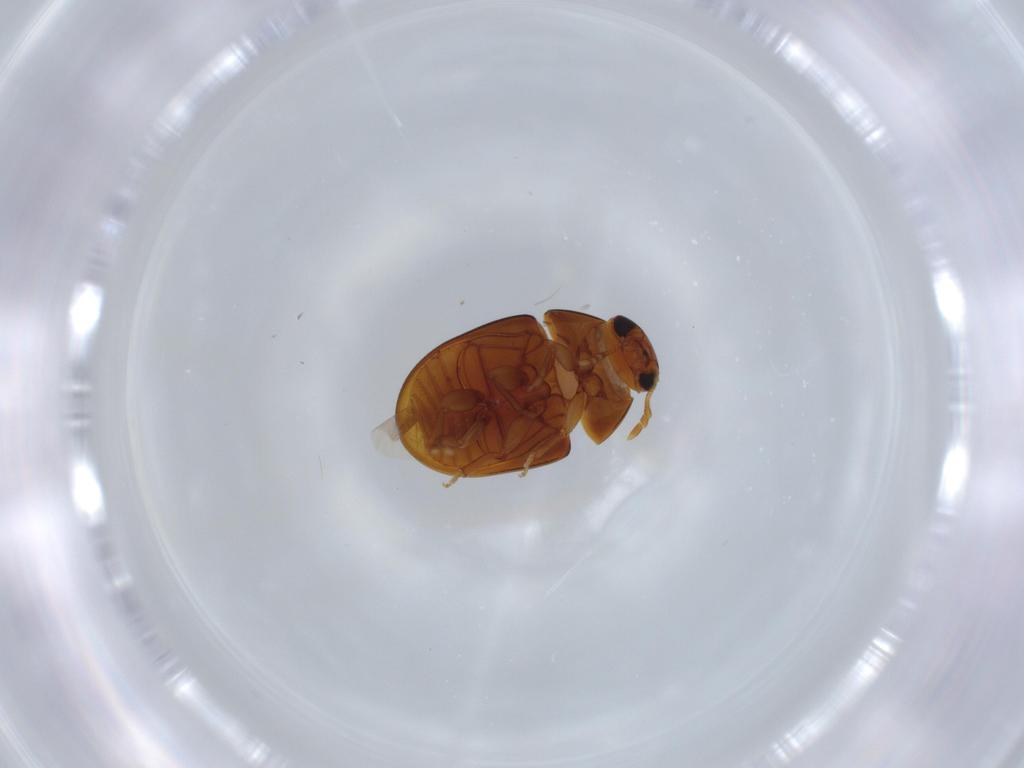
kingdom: Animalia
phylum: Arthropoda
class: Insecta
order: Coleoptera
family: Phalacridae
